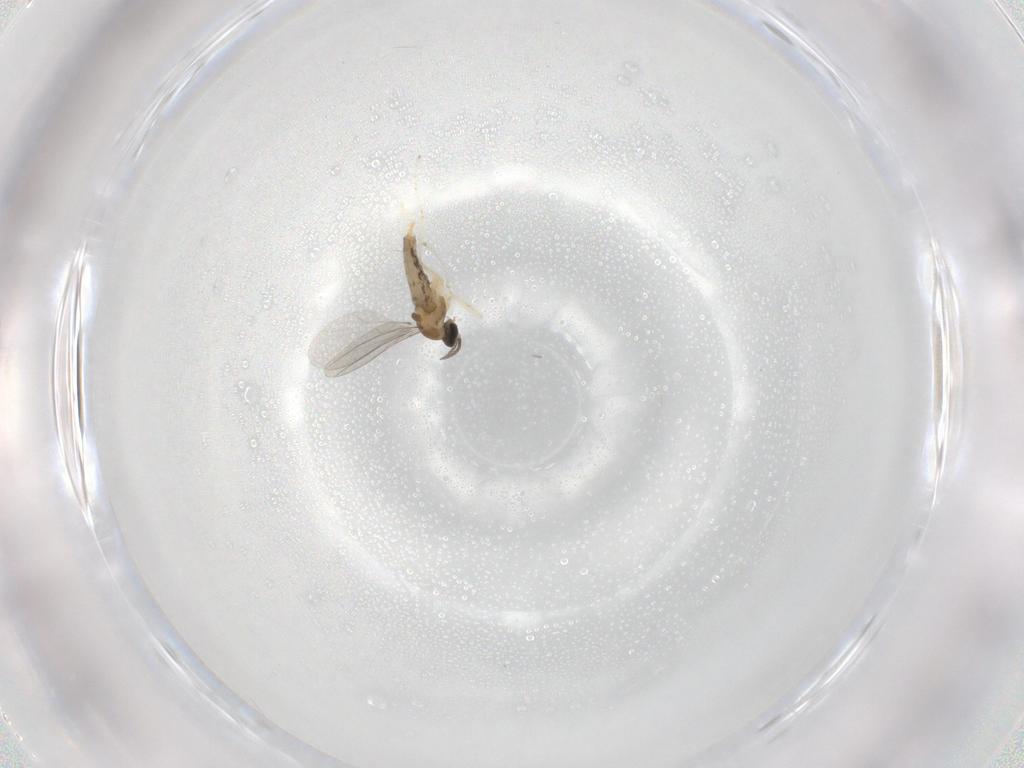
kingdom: Animalia
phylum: Arthropoda
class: Insecta
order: Diptera
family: Cecidomyiidae
